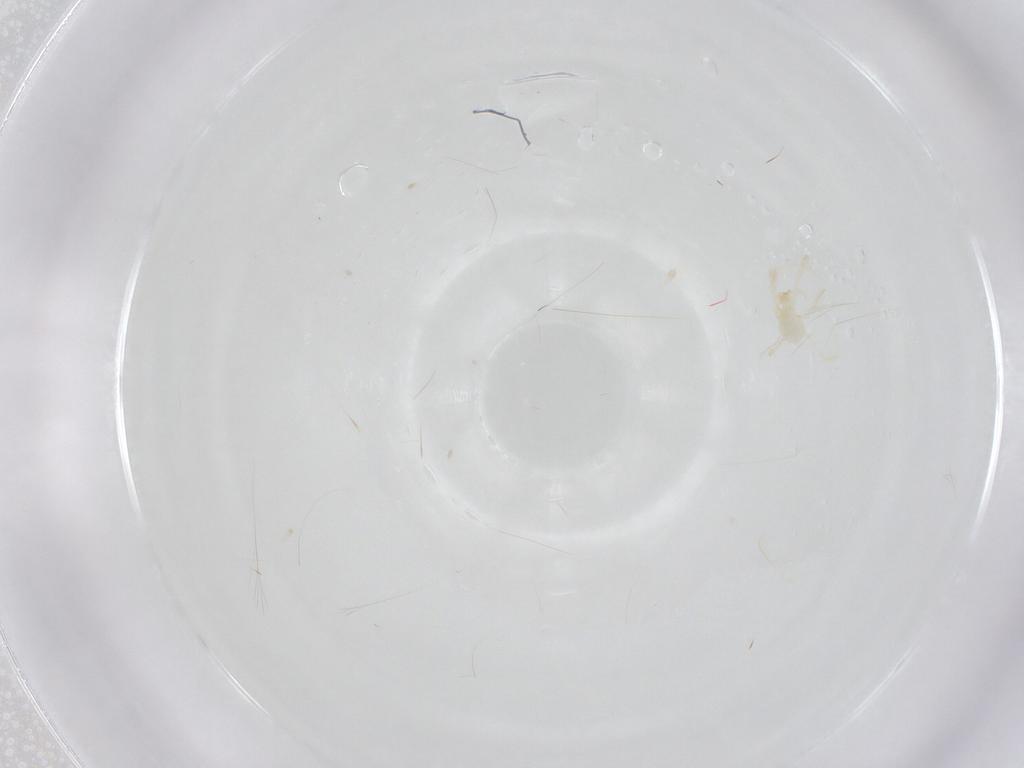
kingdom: Animalia
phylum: Arthropoda
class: Arachnida
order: Trombidiformes
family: Erythraeidae
